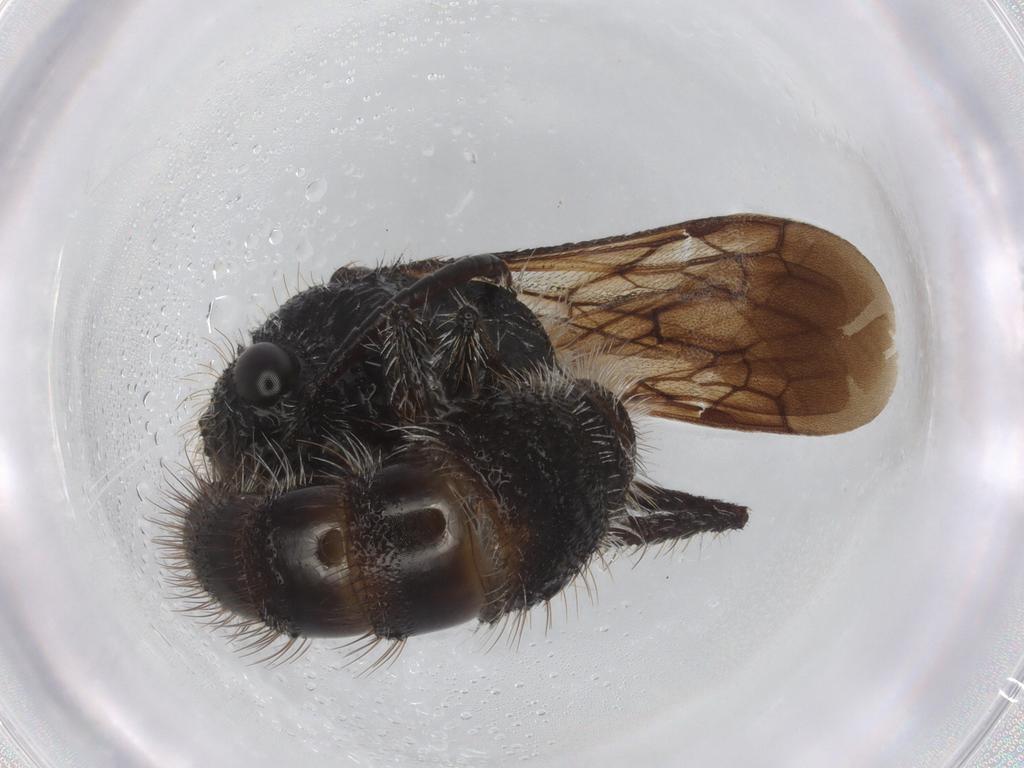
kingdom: Animalia
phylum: Arthropoda
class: Insecta
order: Hymenoptera
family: Mutillidae
